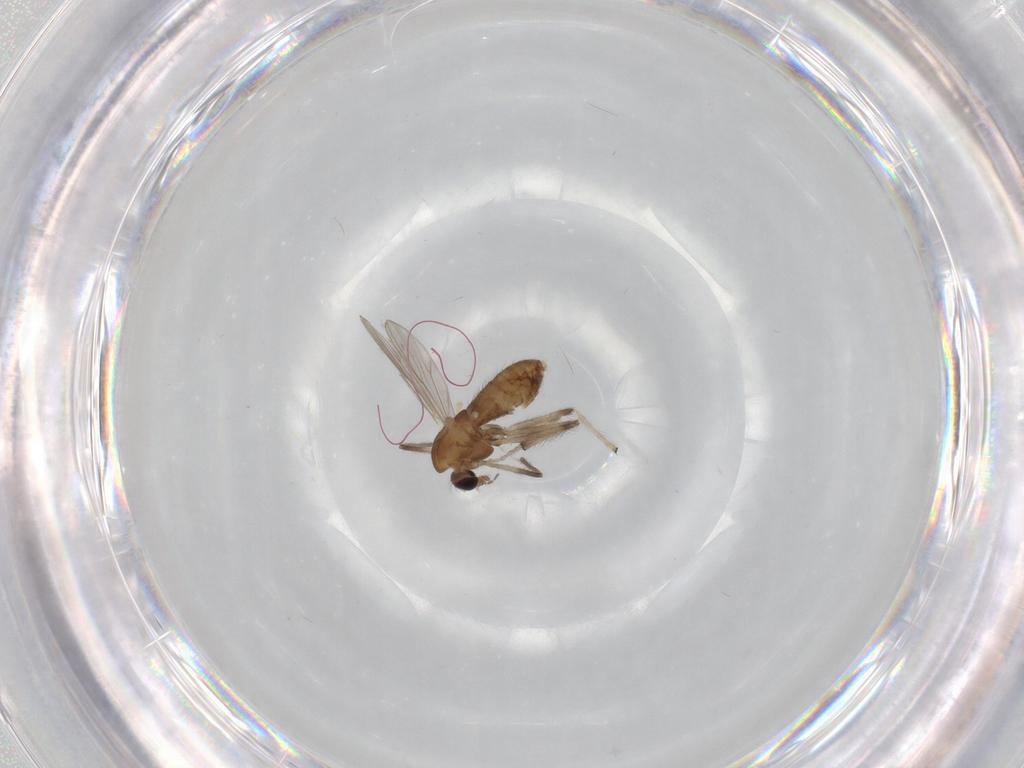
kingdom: Animalia
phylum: Arthropoda
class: Insecta
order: Diptera
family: Chironomidae
